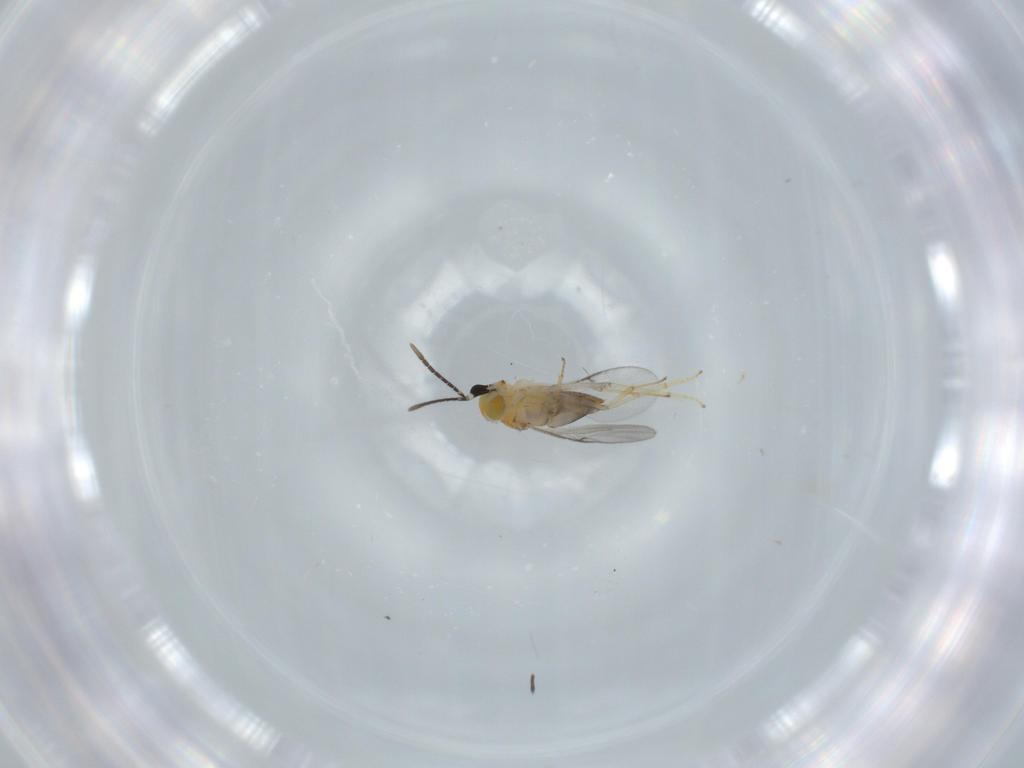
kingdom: Animalia
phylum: Arthropoda
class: Insecta
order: Hymenoptera
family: Encyrtidae
